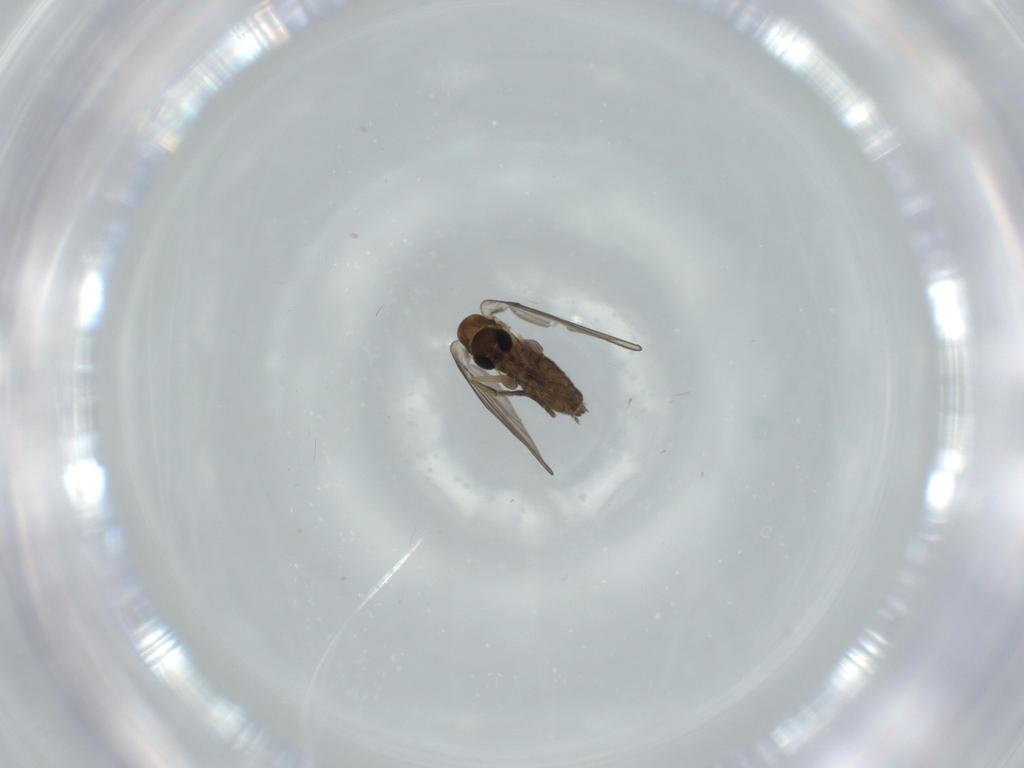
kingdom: Animalia
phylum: Arthropoda
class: Insecta
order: Diptera
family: Psychodidae
